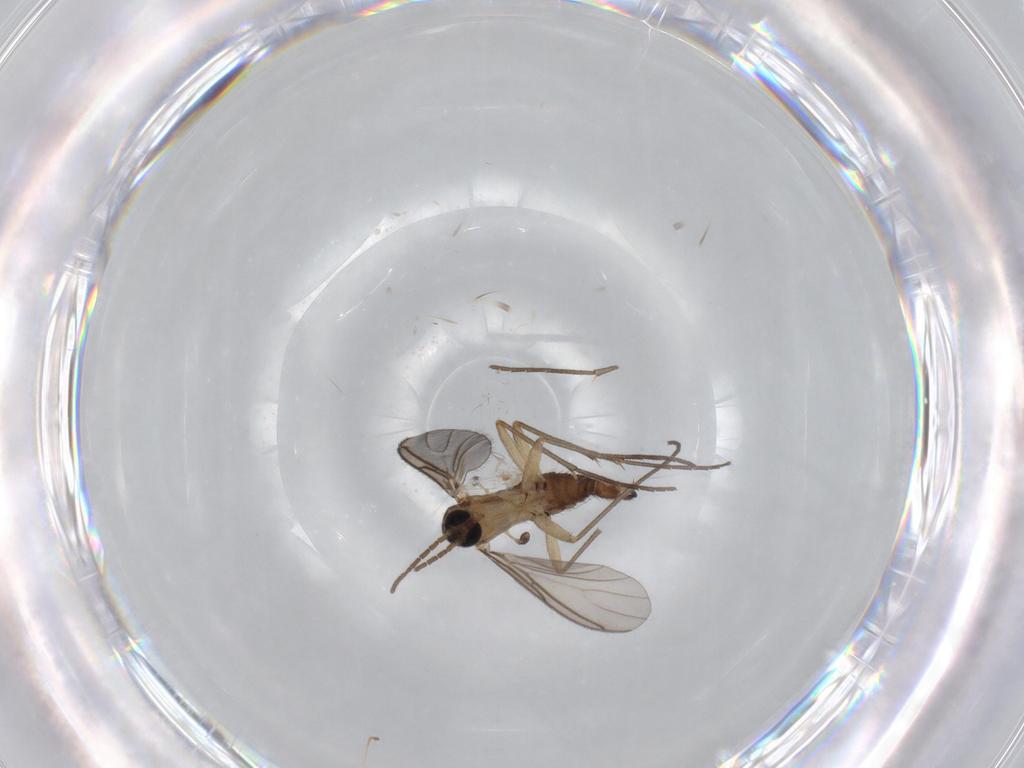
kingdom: Animalia
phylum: Arthropoda
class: Insecta
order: Diptera
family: Sciaridae
